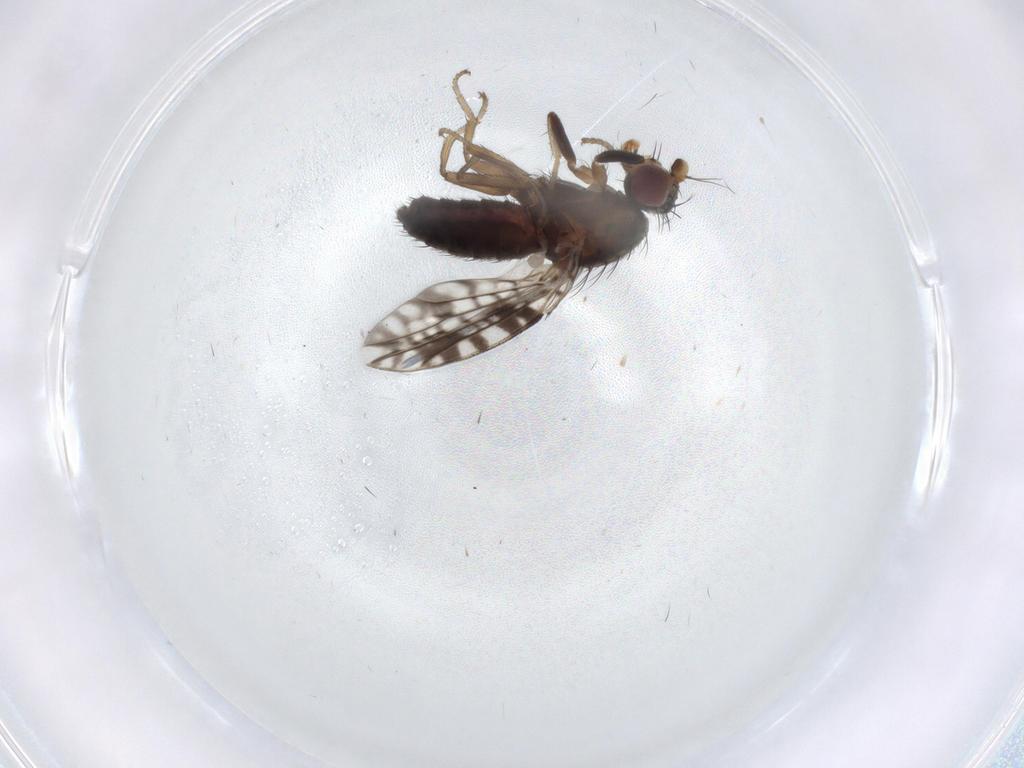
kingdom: Animalia
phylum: Arthropoda
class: Insecta
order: Diptera
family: Tephritidae
